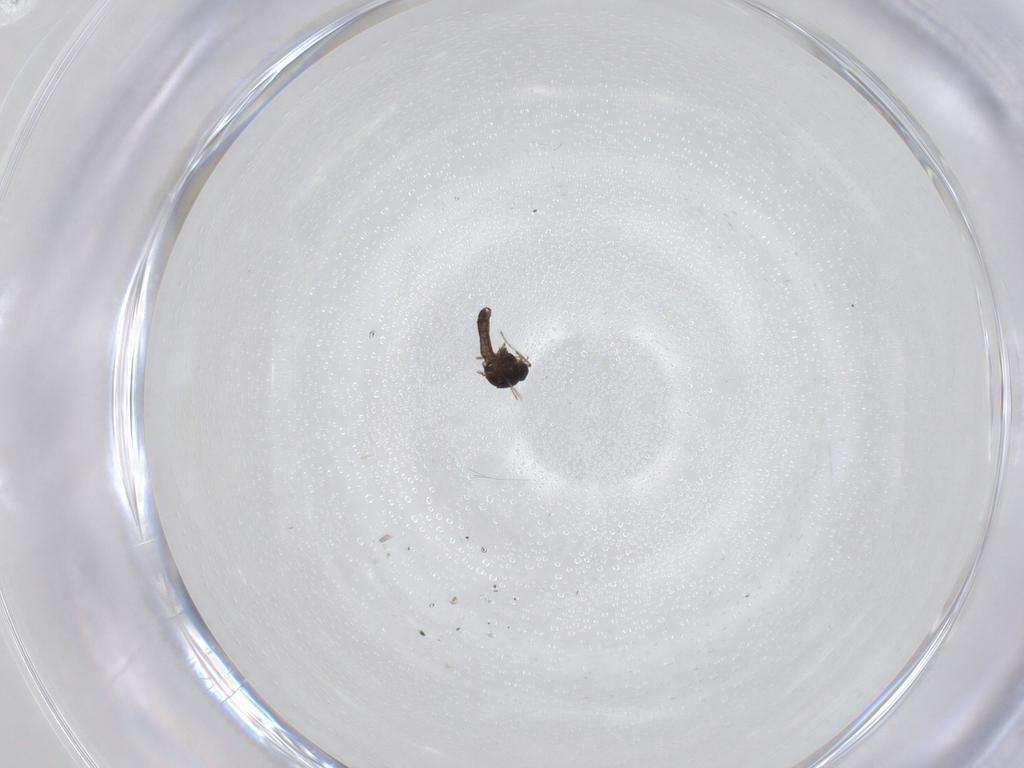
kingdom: Animalia
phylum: Arthropoda
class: Insecta
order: Diptera
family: Ceratopogonidae
